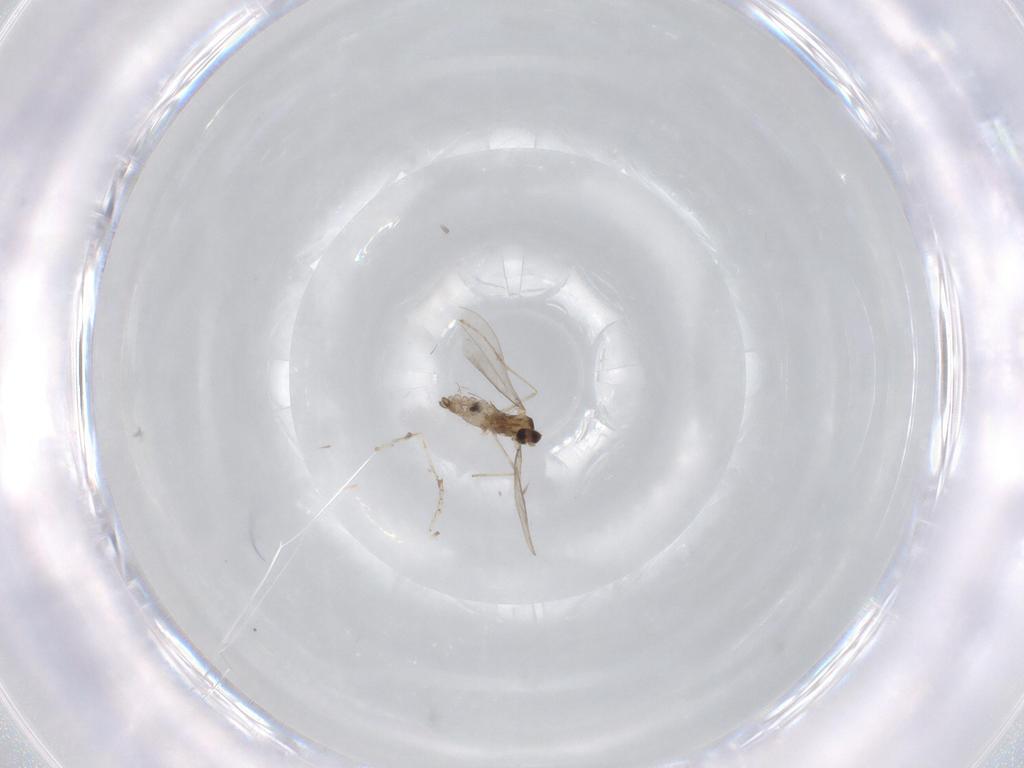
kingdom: Animalia
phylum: Arthropoda
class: Insecta
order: Diptera
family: Cecidomyiidae
